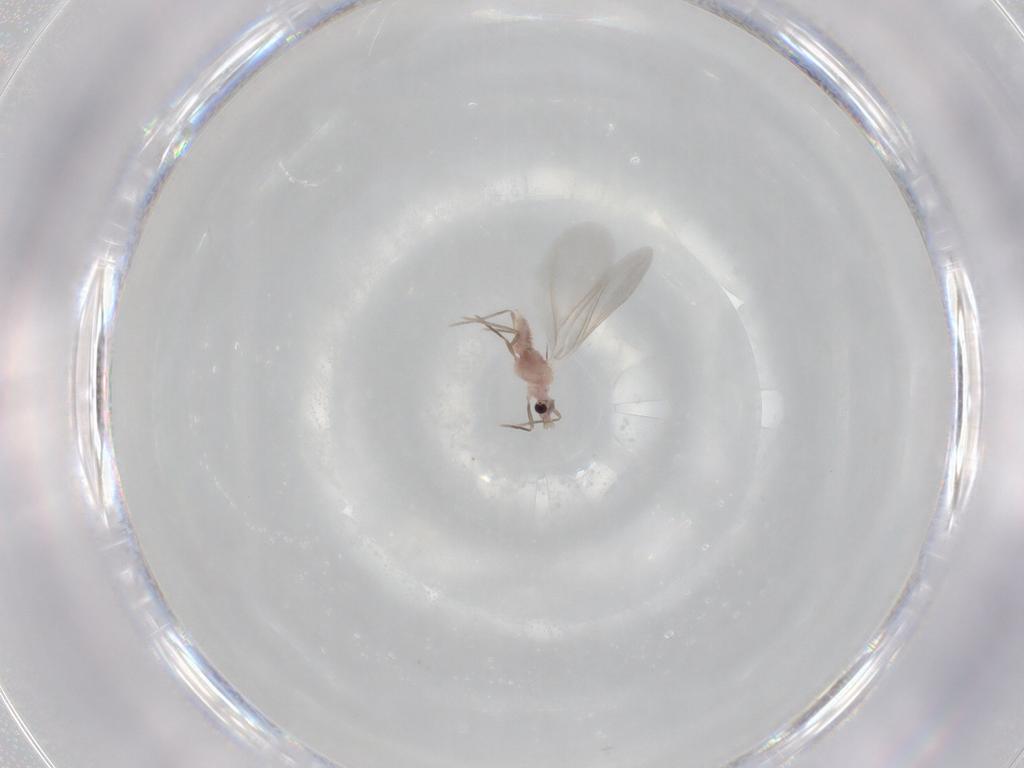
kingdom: Animalia
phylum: Arthropoda
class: Insecta
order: Hemiptera
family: Coccoidea_incertae_sedis
